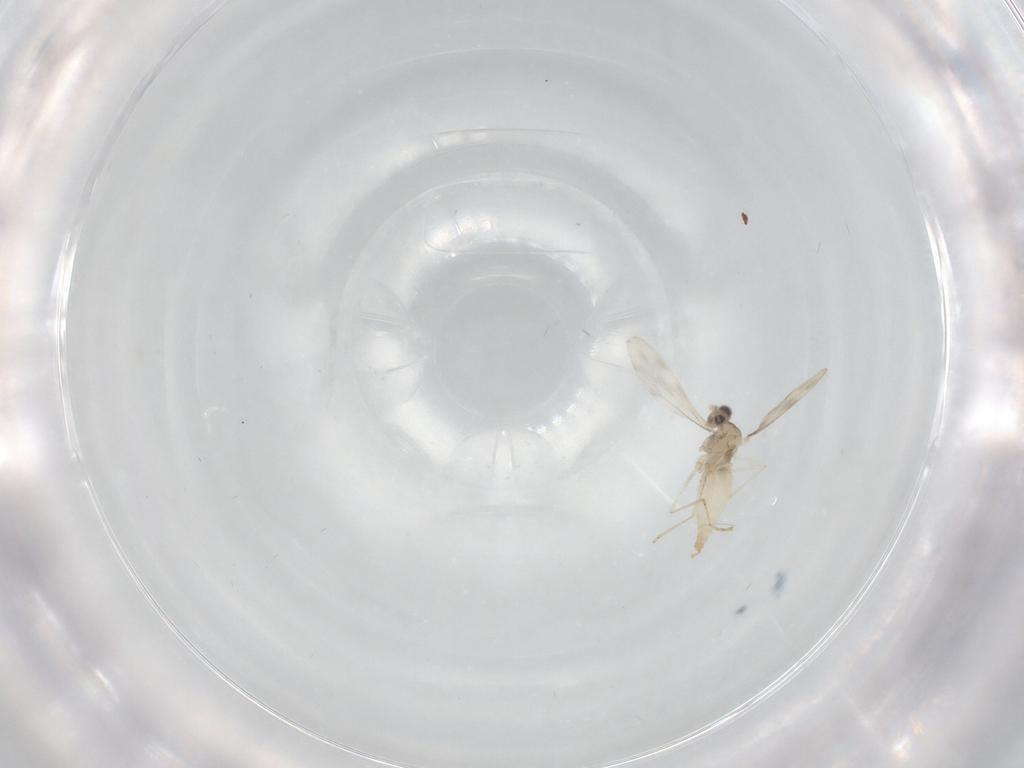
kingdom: Animalia
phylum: Arthropoda
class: Insecta
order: Diptera
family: Cecidomyiidae
